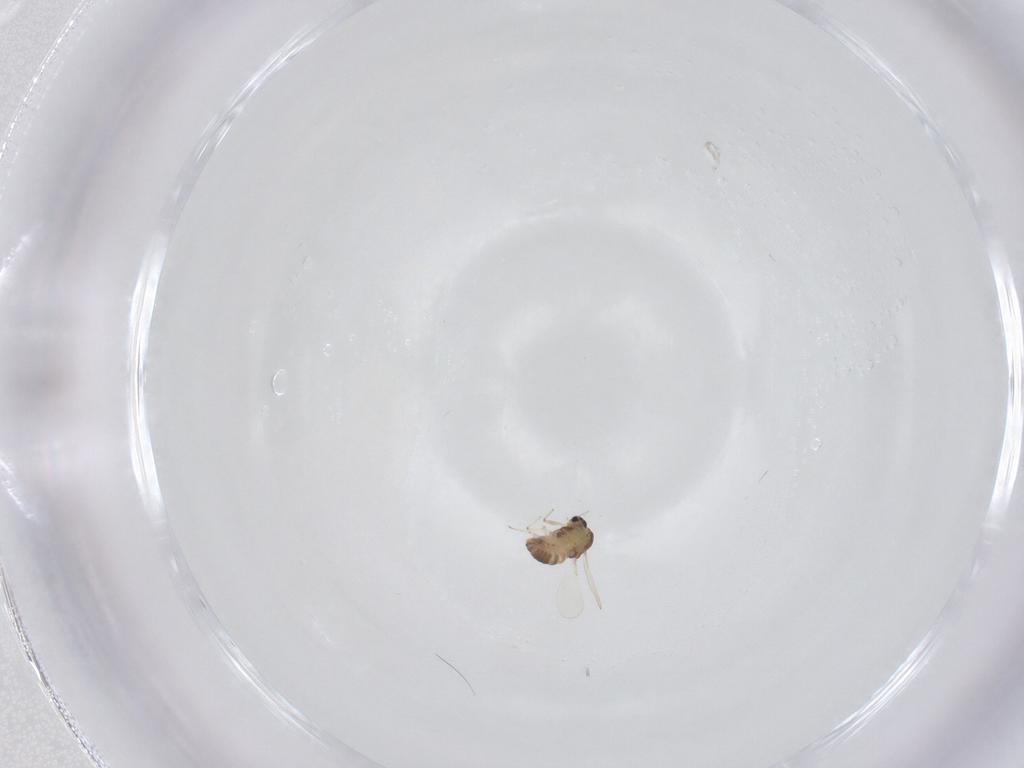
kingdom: Animalia
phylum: Arthropoda
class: Insecta
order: Diptera
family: Chironomidae
